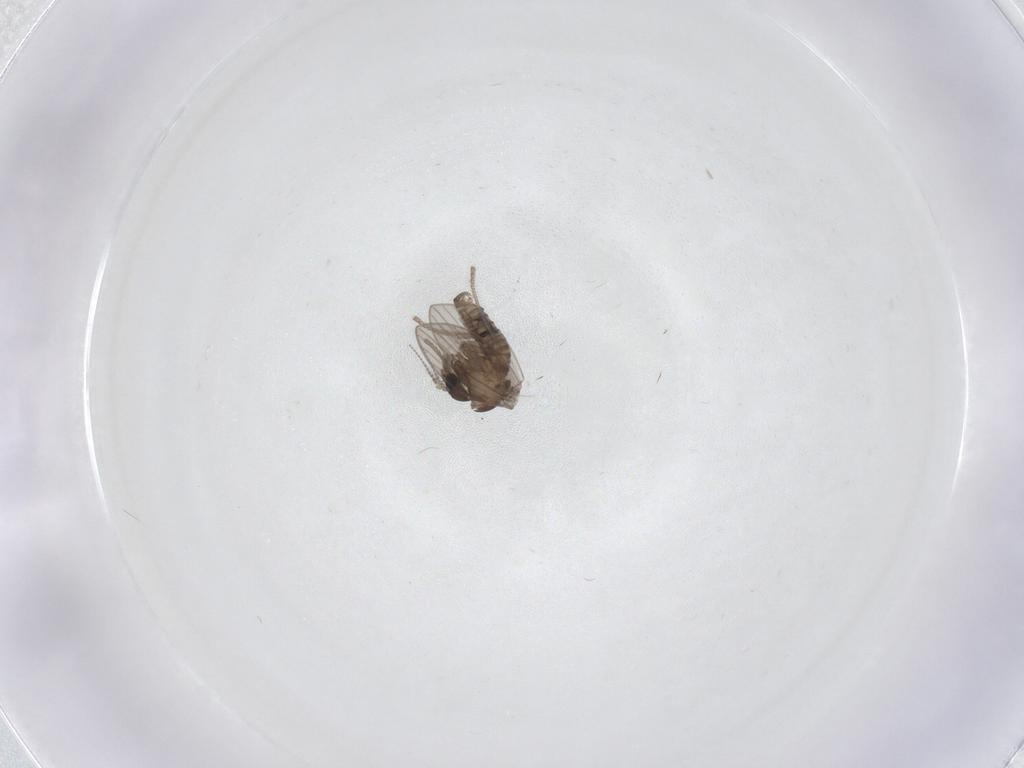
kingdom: Animalia
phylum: Arthropoda
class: Insecta
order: Diptera
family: Psychodidae
